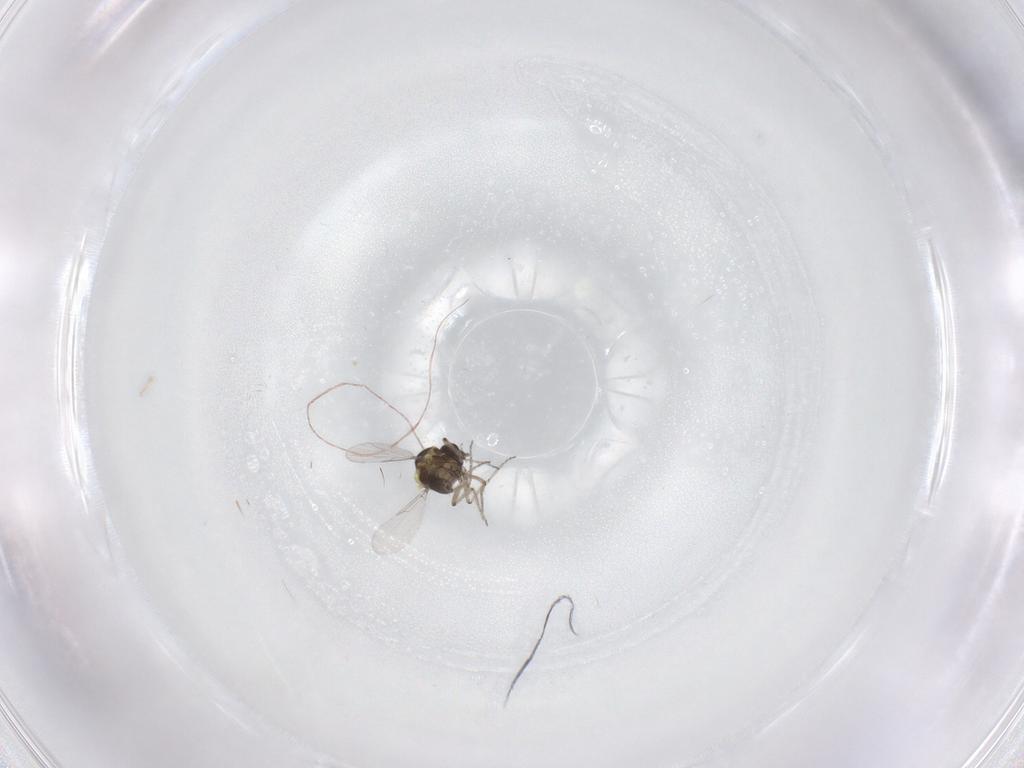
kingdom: Animalia
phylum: Arthropoda
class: Insecta
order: Diptera
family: Ceratopogonidae
